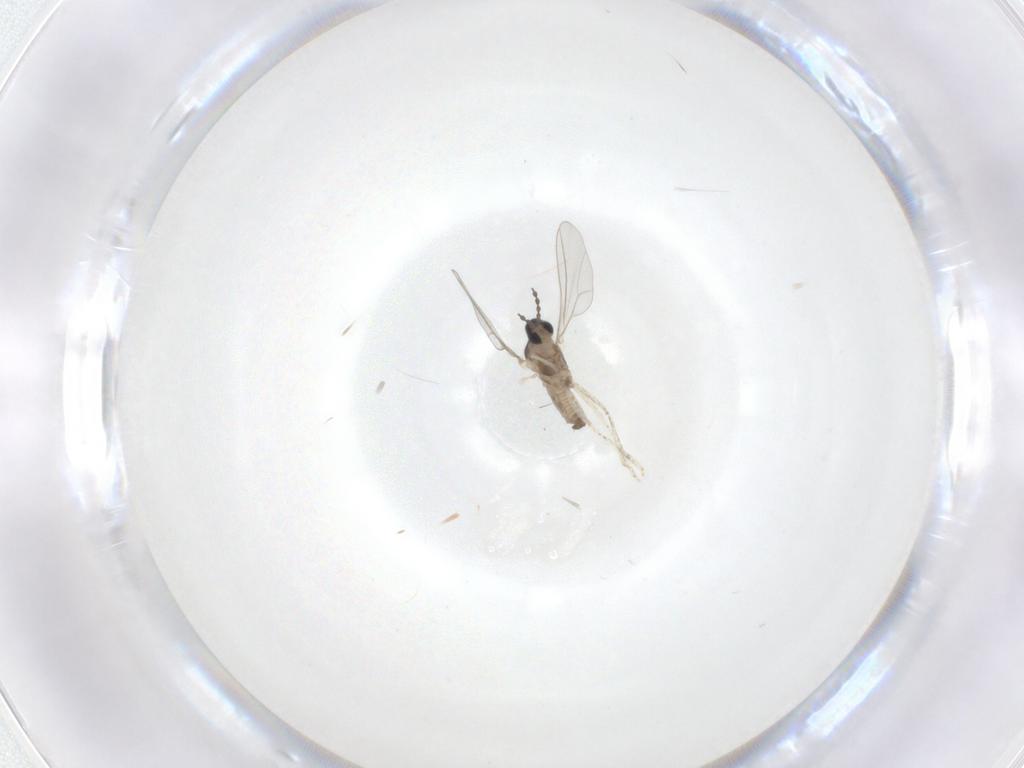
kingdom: Animalia
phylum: Arthropoda
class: Insecta
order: Diptera
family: Cecidomyiidae
